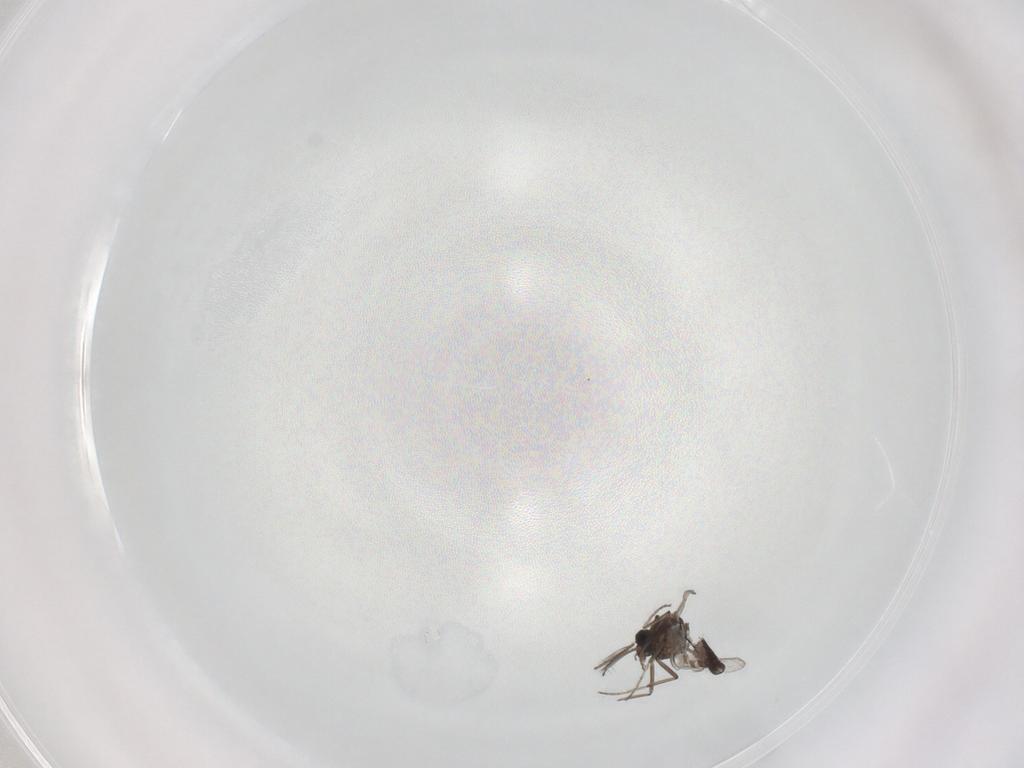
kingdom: Animalia
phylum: Arthropoda
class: Insecta
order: Diptera
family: Ceratopogonidae
